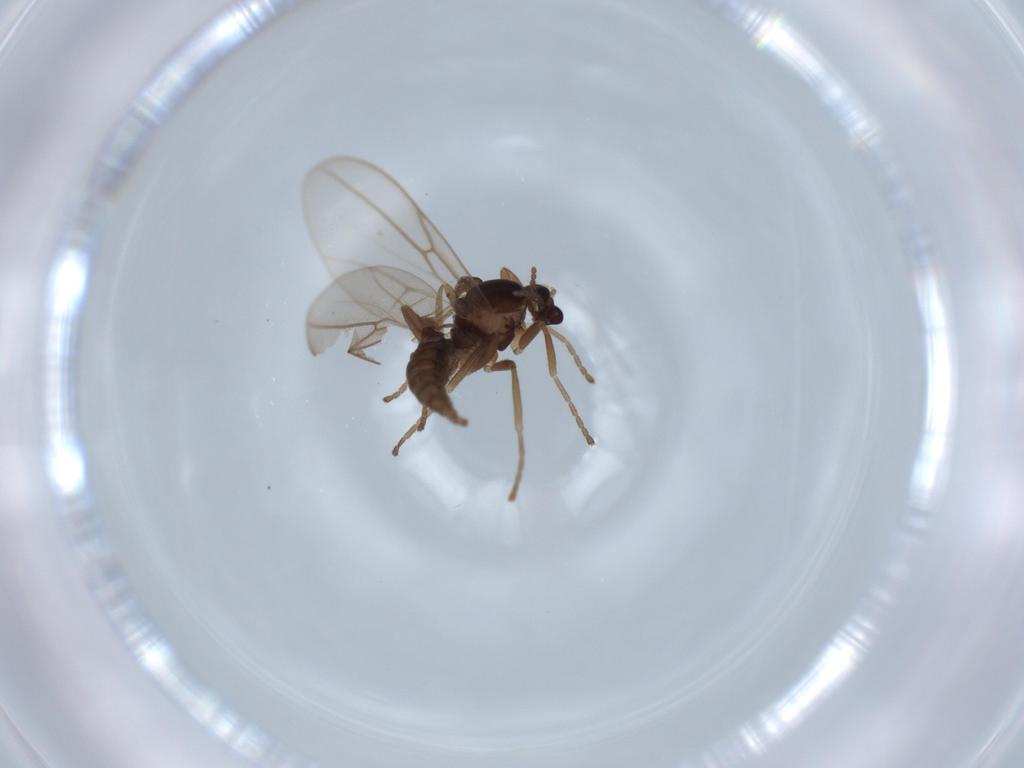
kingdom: Animalia
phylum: Arthropoda
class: Insecta
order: Diptera
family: Cecidomyiidae
